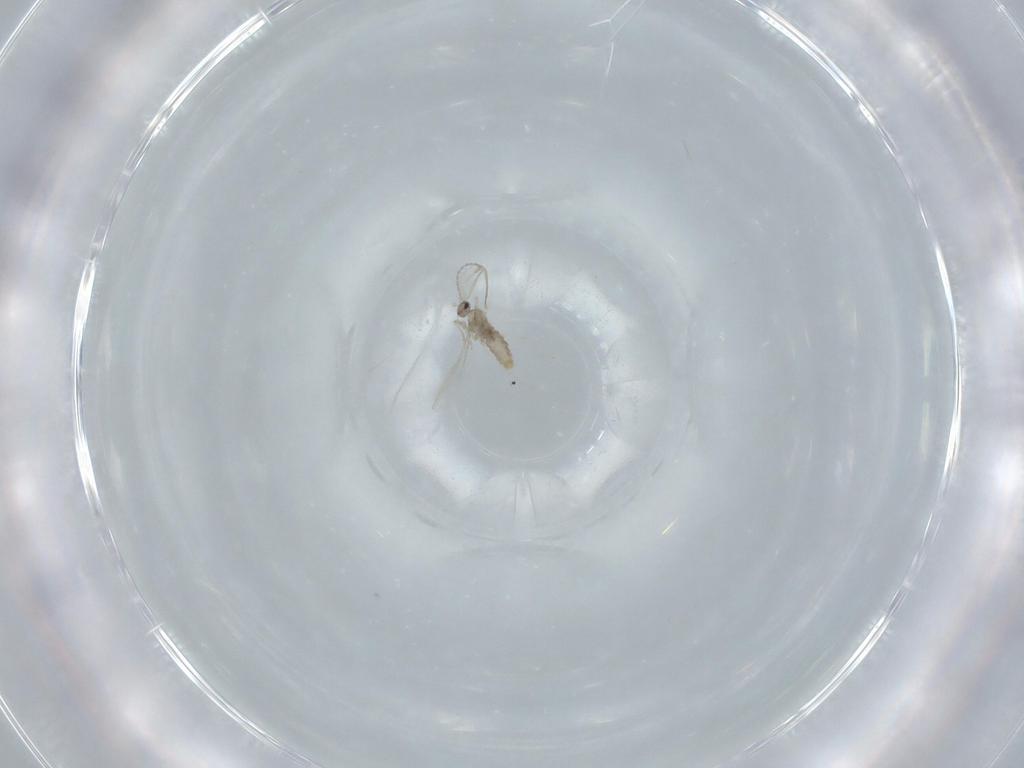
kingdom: Animalia
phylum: Arthropoda
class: Insecta
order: Diptera
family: Cecidomyiidae
